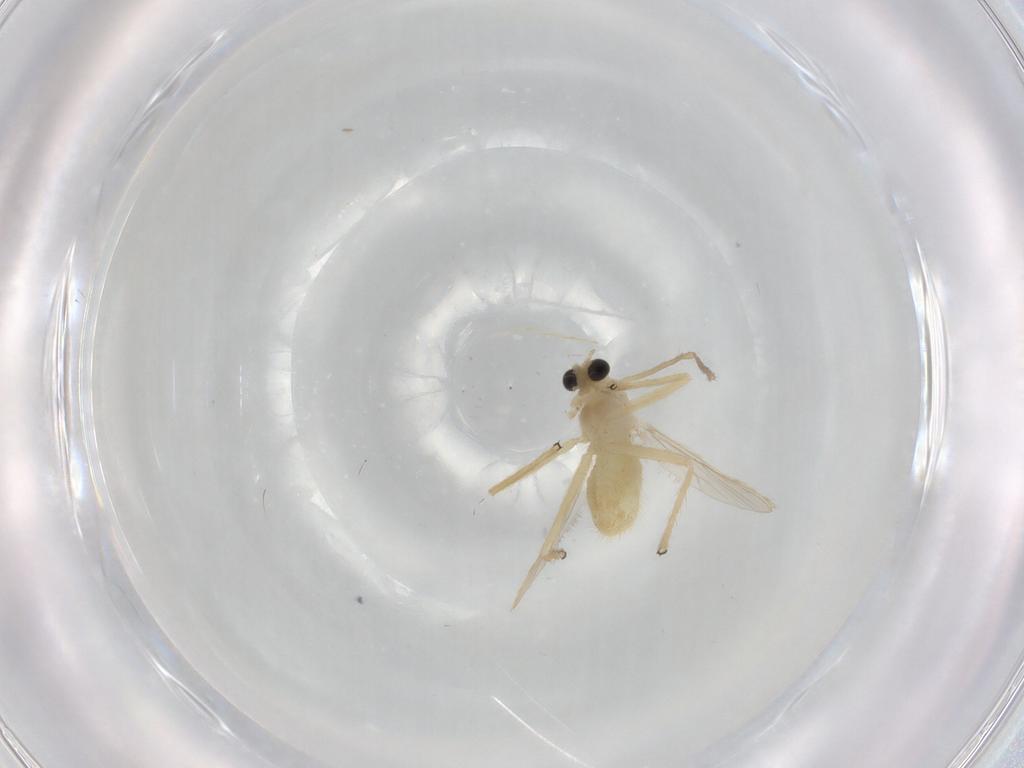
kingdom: Animalia
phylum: Arthropoda
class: Insecta
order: Diptera
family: Chironomidae
